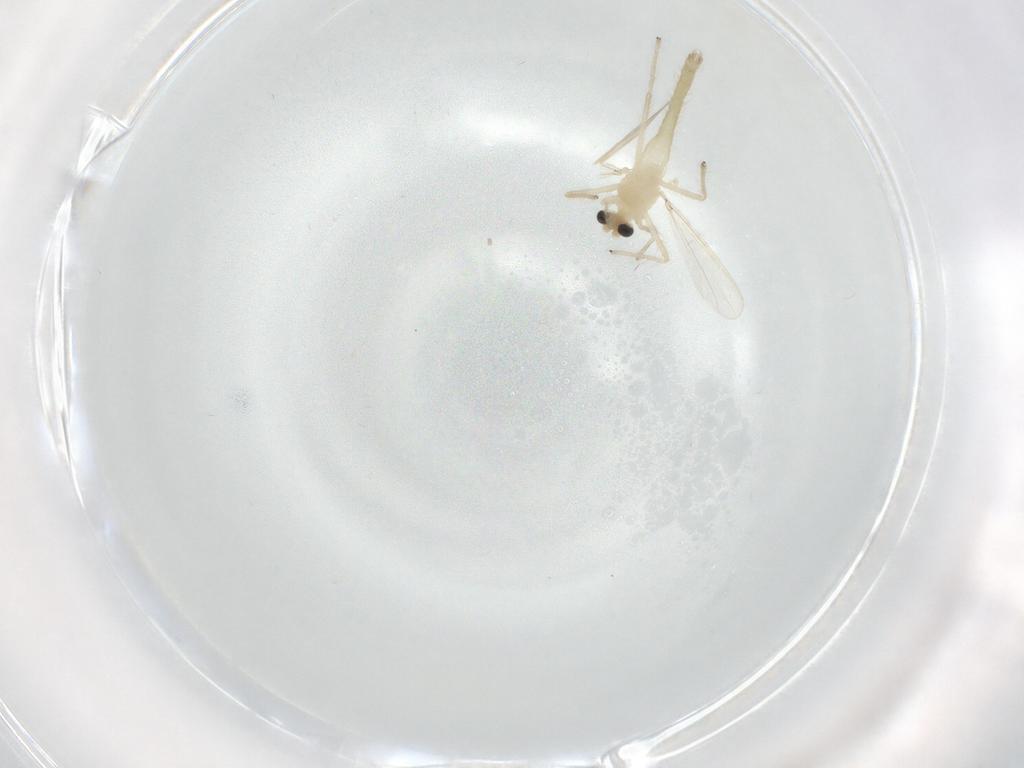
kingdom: Animalia
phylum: Arthropoda
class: Insecta
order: Diptera
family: Chironomidae
